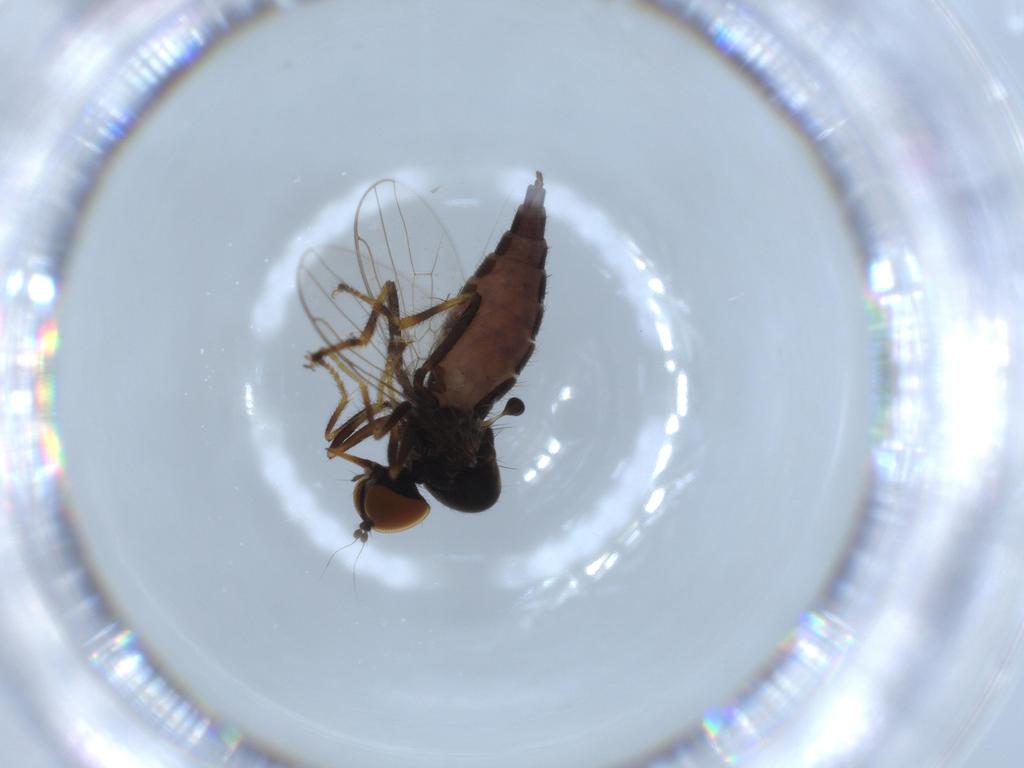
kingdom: Animalia
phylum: Arthropoda
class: Insecta
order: Diptera
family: Hybotidae
